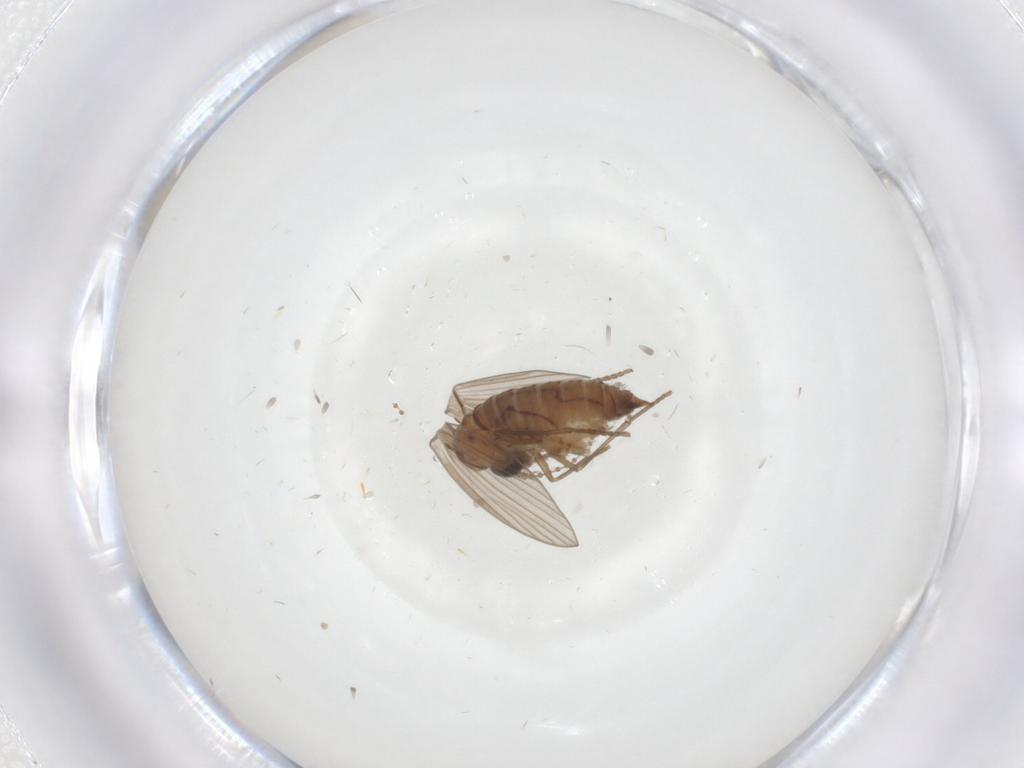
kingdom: Animalia
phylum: Arthropoda
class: Insecta
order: Diptera
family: Psychodidae
